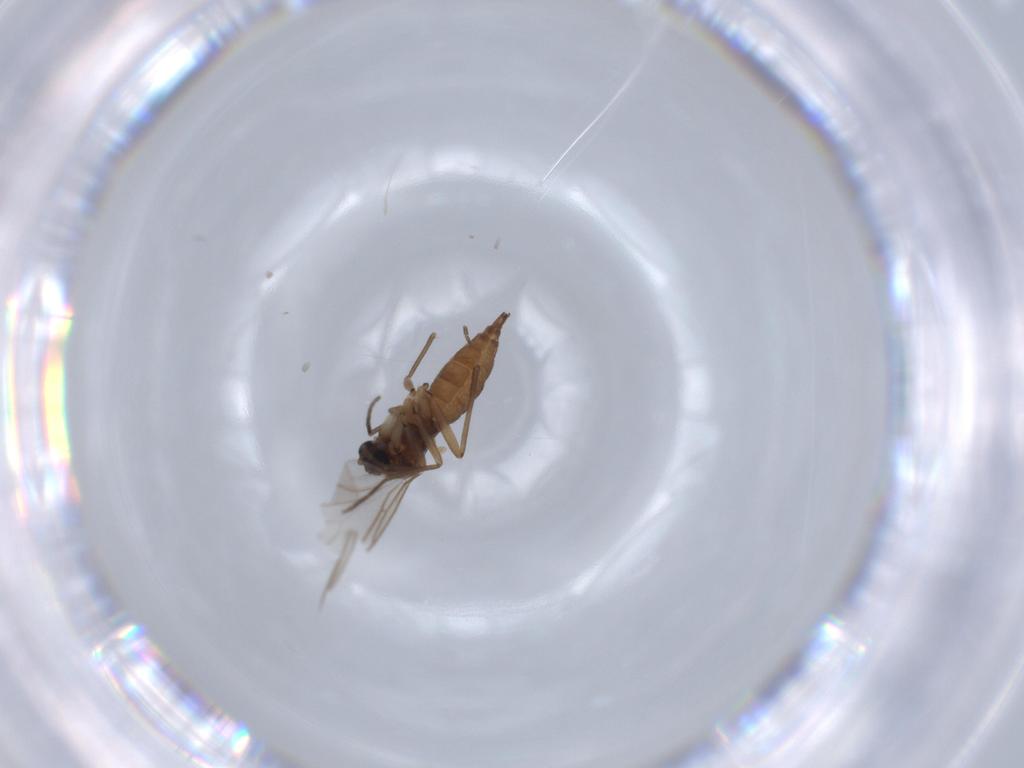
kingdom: Animalia
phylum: Arthropoda
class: Insecta
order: Diptera
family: Sciaridae
